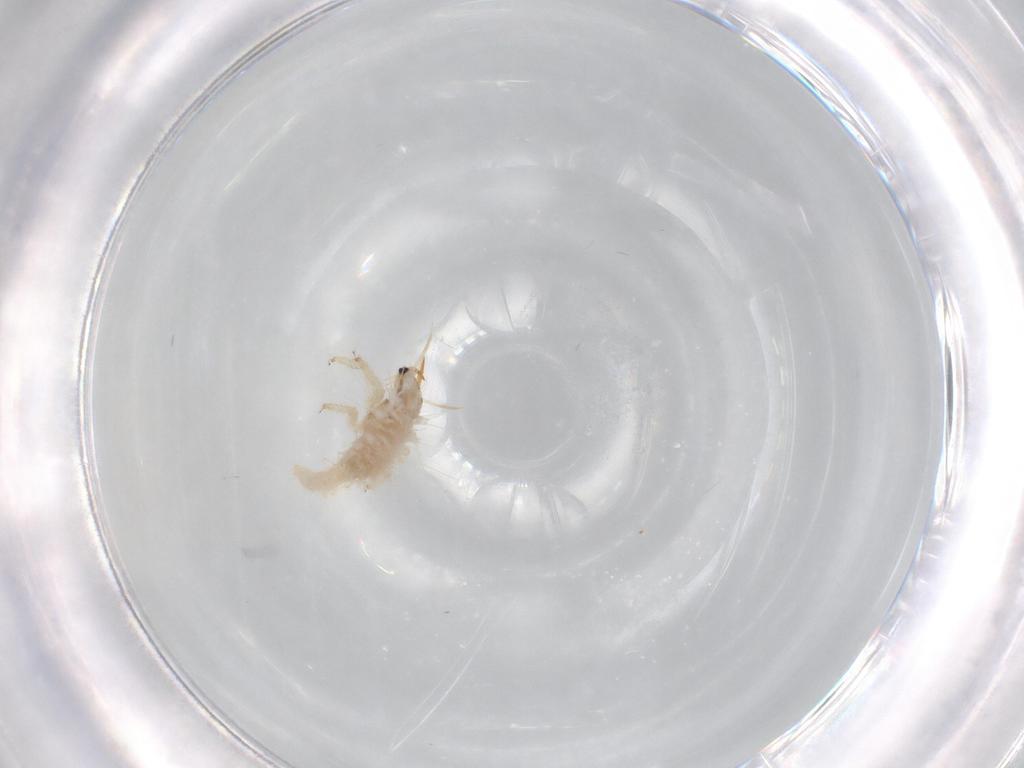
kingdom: Animalia
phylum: Arthropoda
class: Insecta
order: Neuroptera
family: Chrysopidae
